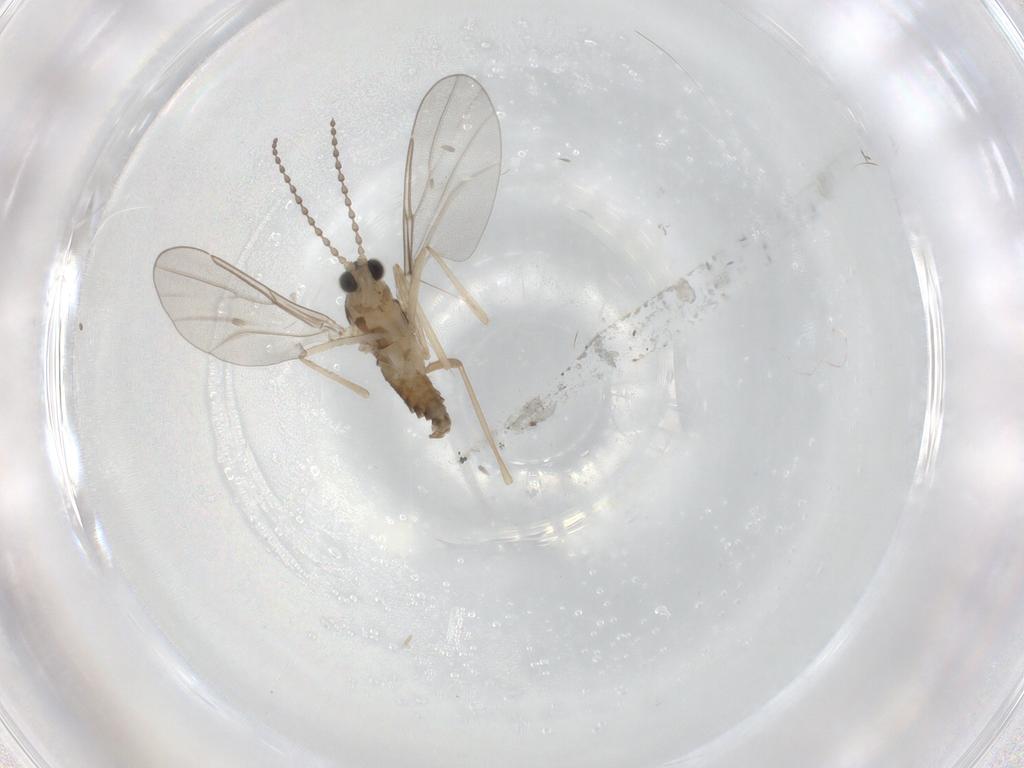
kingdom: Animalia
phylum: Arthropoda
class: Insecta
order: Diptera
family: Cecidomyiidae
